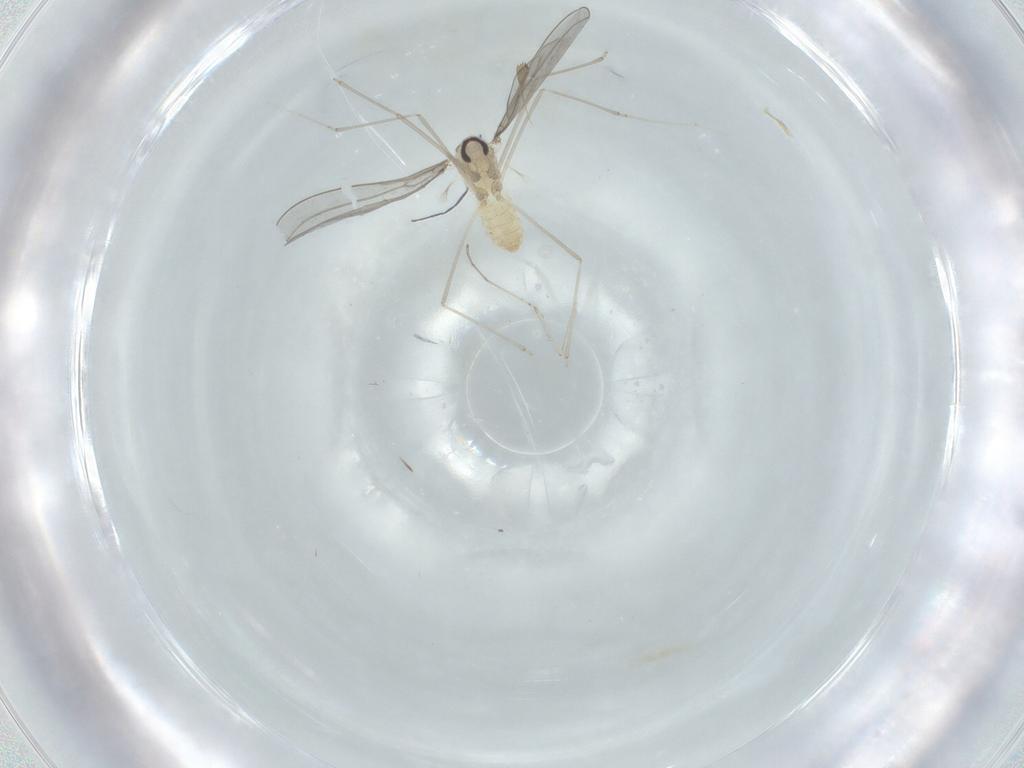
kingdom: Animalia
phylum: Arthropoda
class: Insecta
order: Diptera
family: Cecidomyiidae
